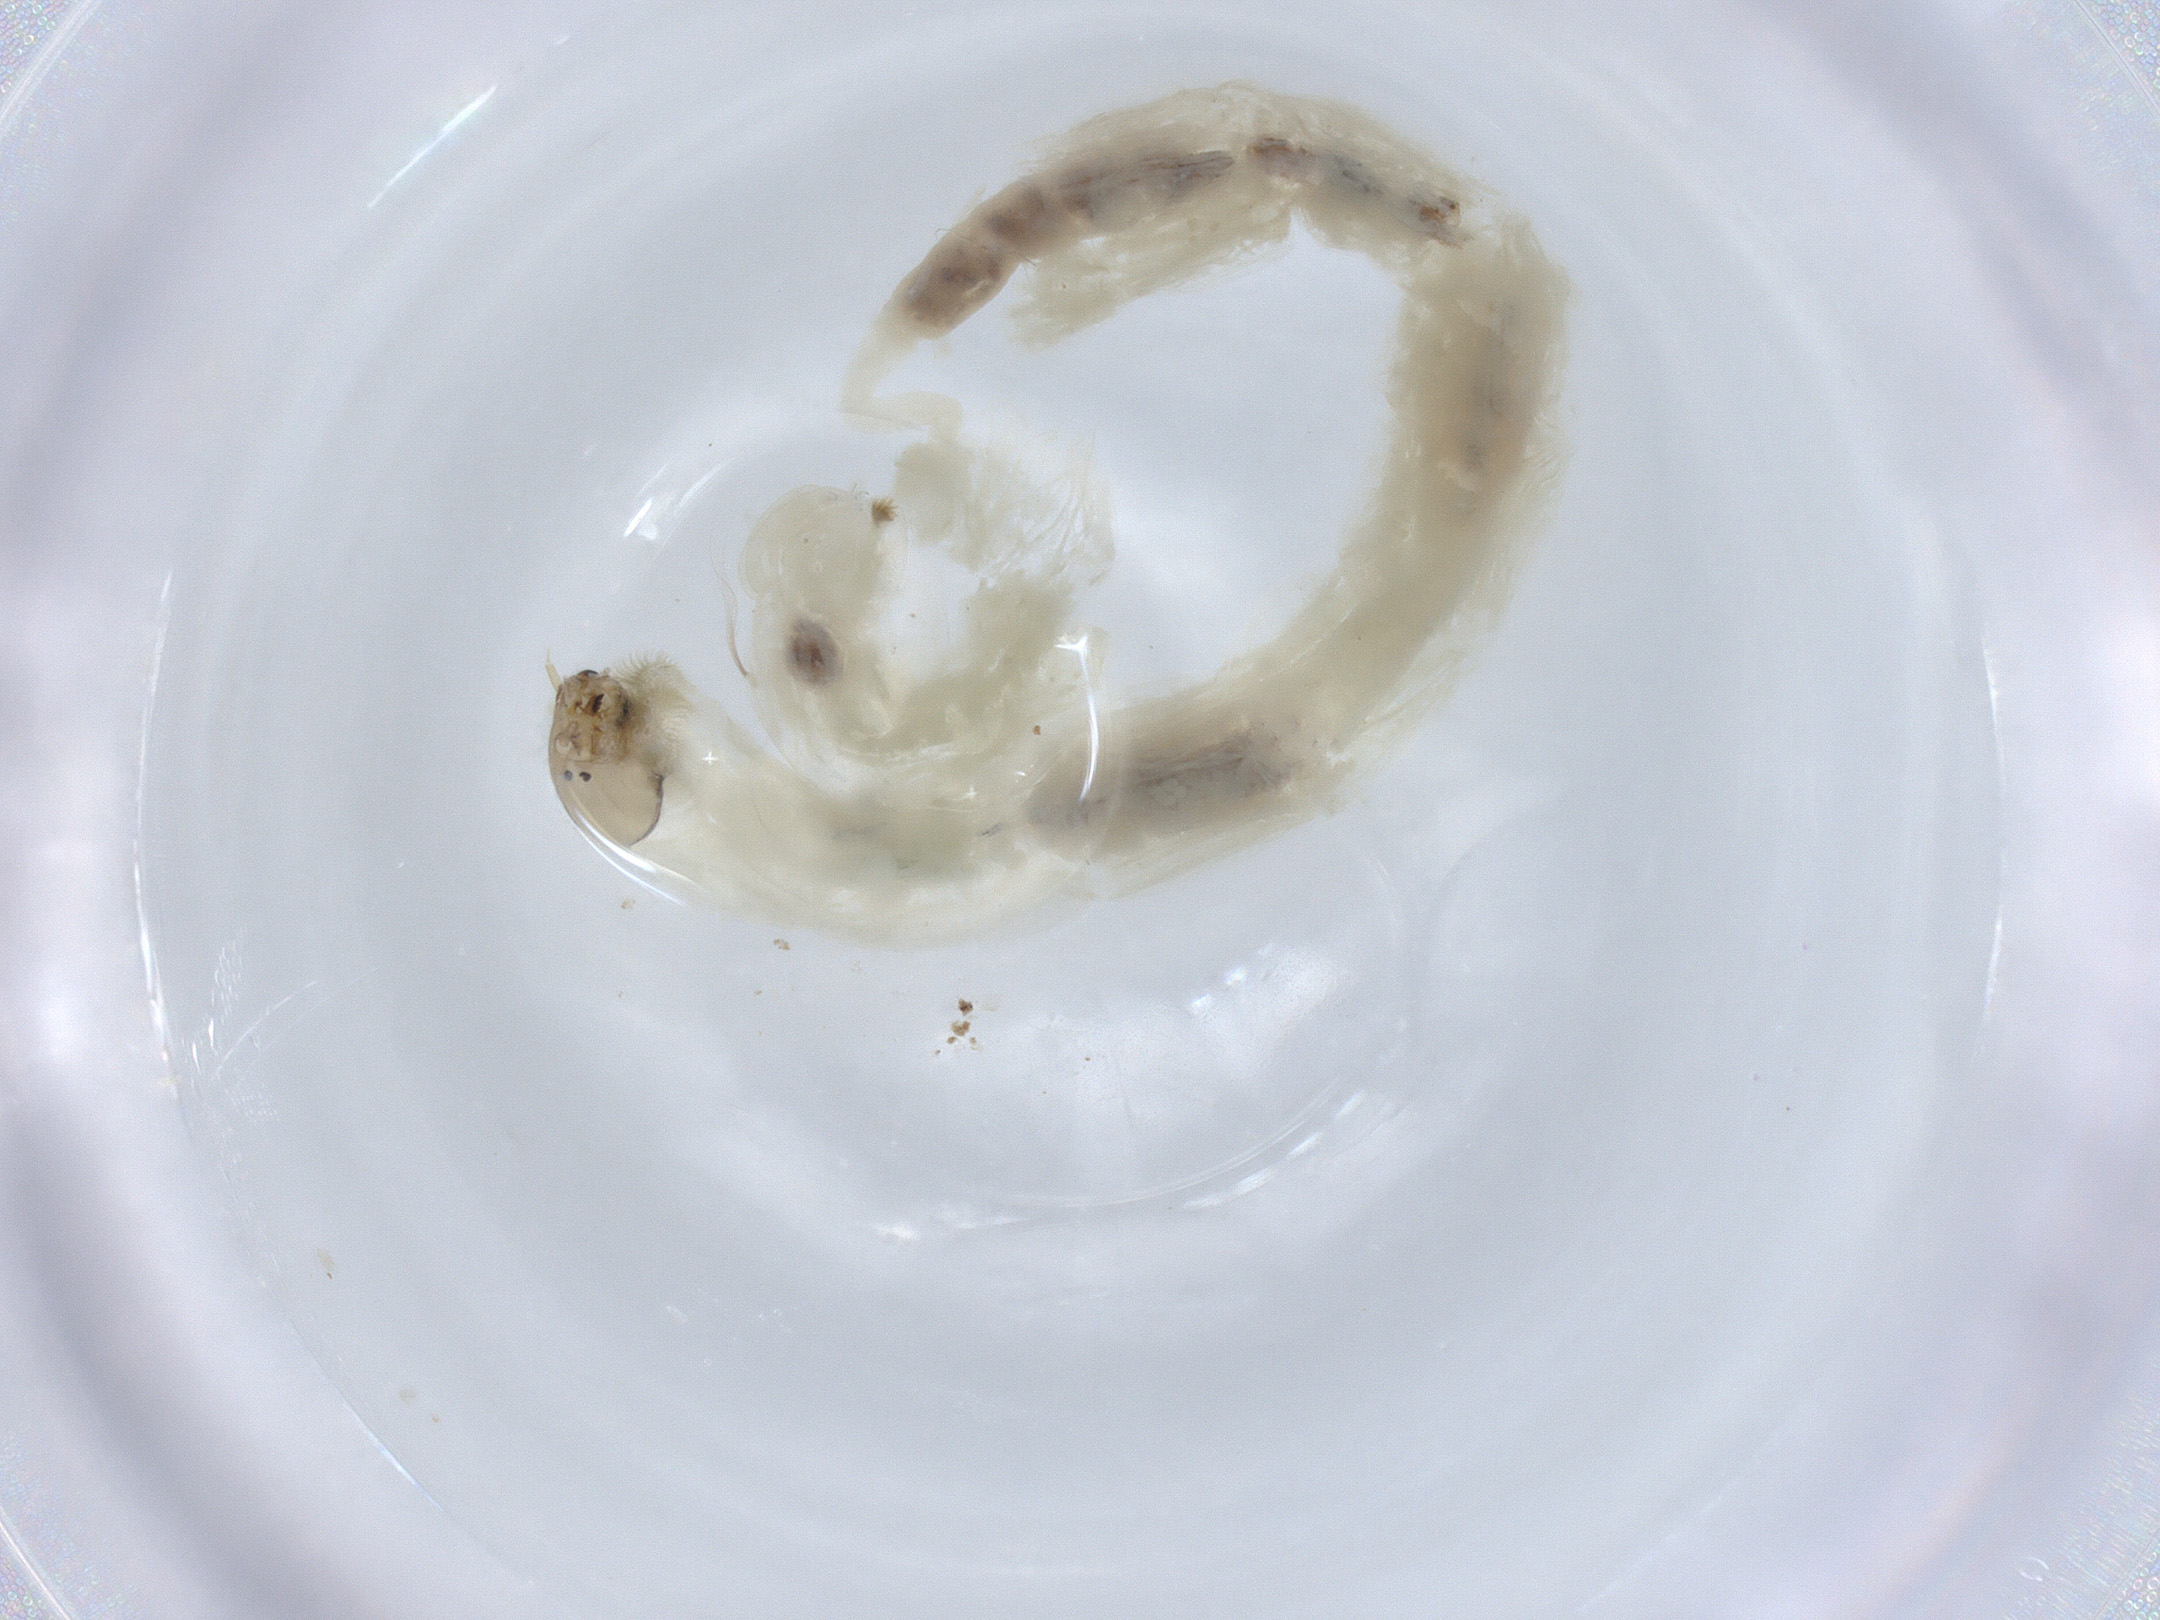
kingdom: Animalia
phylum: Arthropoda
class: Insecta
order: Diptera
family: Chironomidae
